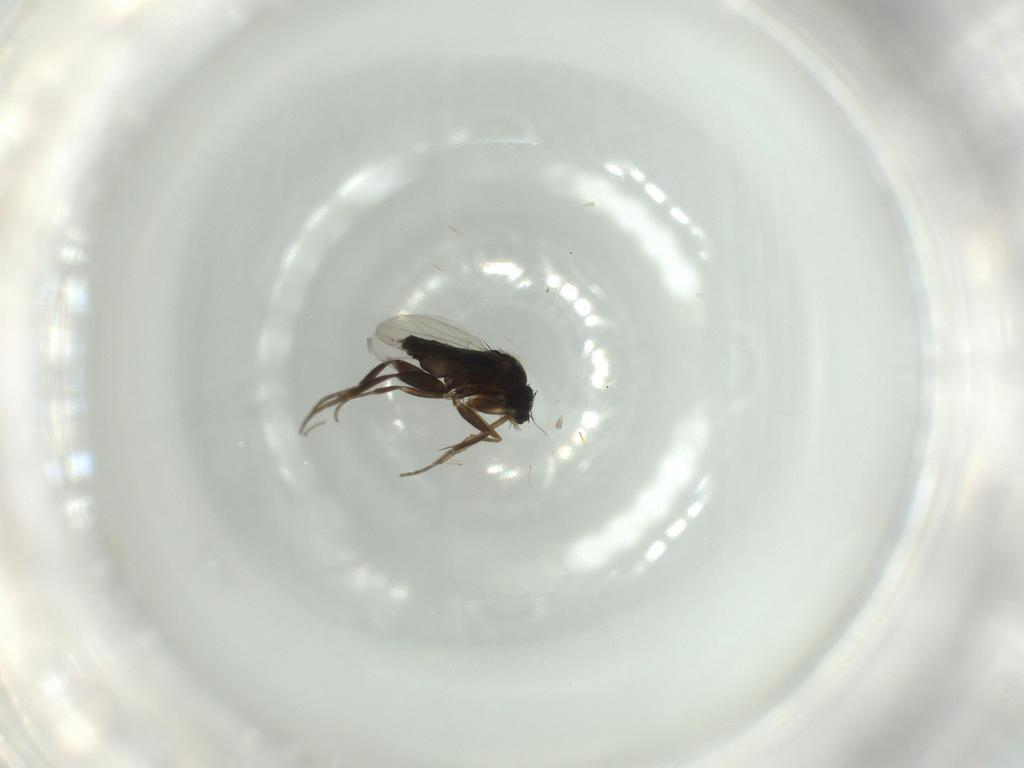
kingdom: Animalia
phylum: Arthropoda
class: Insecta
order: Diptera
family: Phoridae
